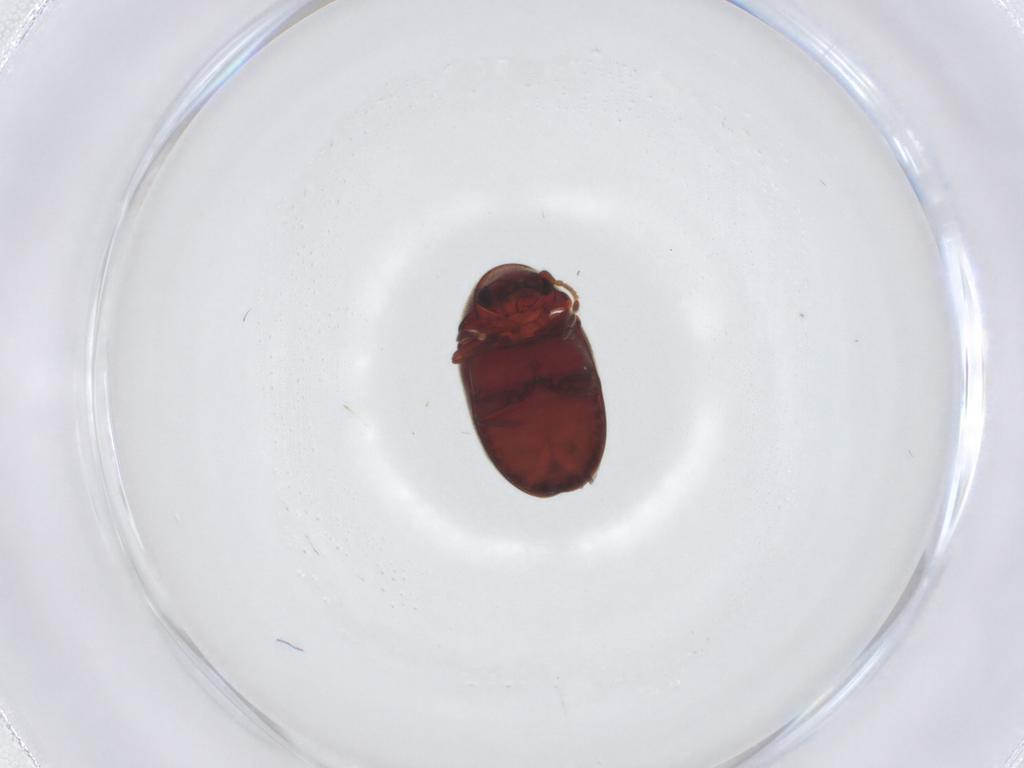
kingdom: Animalia
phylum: Arthropoda
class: Insecta
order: Coleoptera
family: Ptinidae
